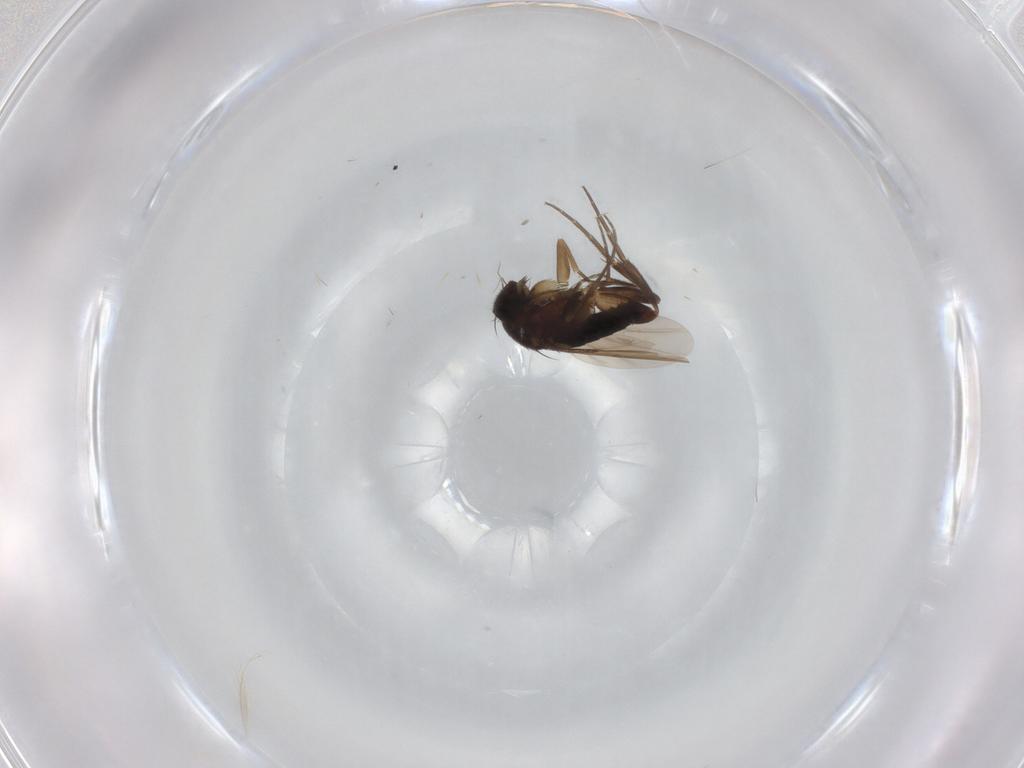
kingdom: Animalia
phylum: Arthropoda
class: Insecta
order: Diptera
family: Phoridae
